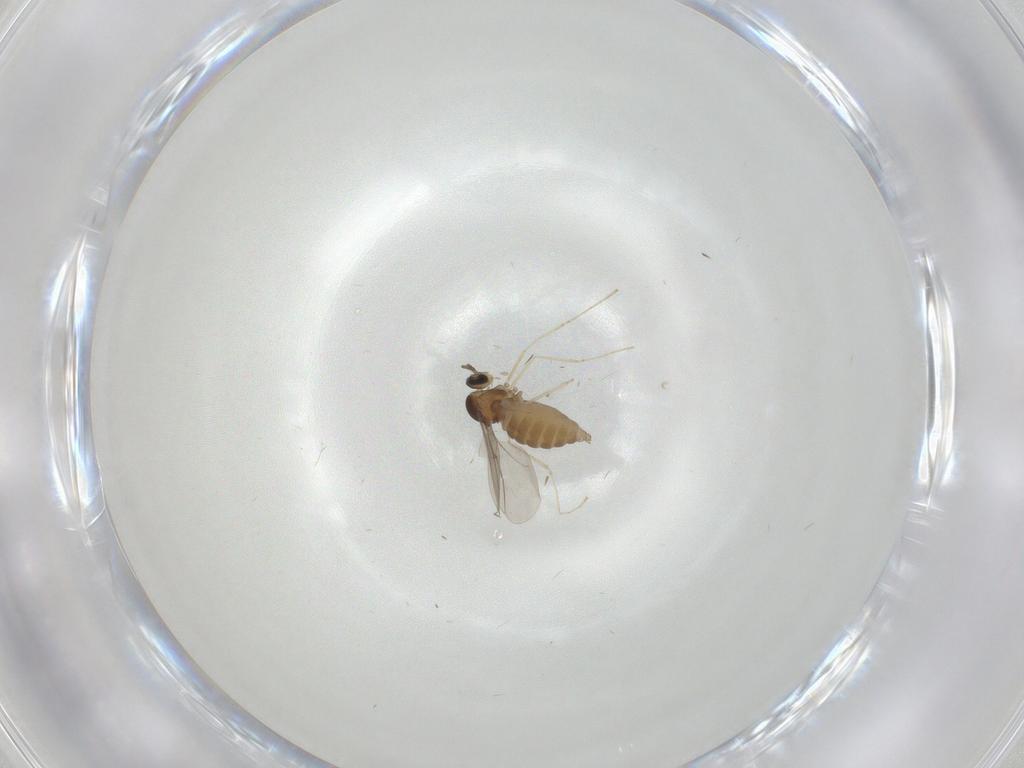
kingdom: Animalia
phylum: Arthropoda
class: Insecta
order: Diptera
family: Cecidomyiidae
